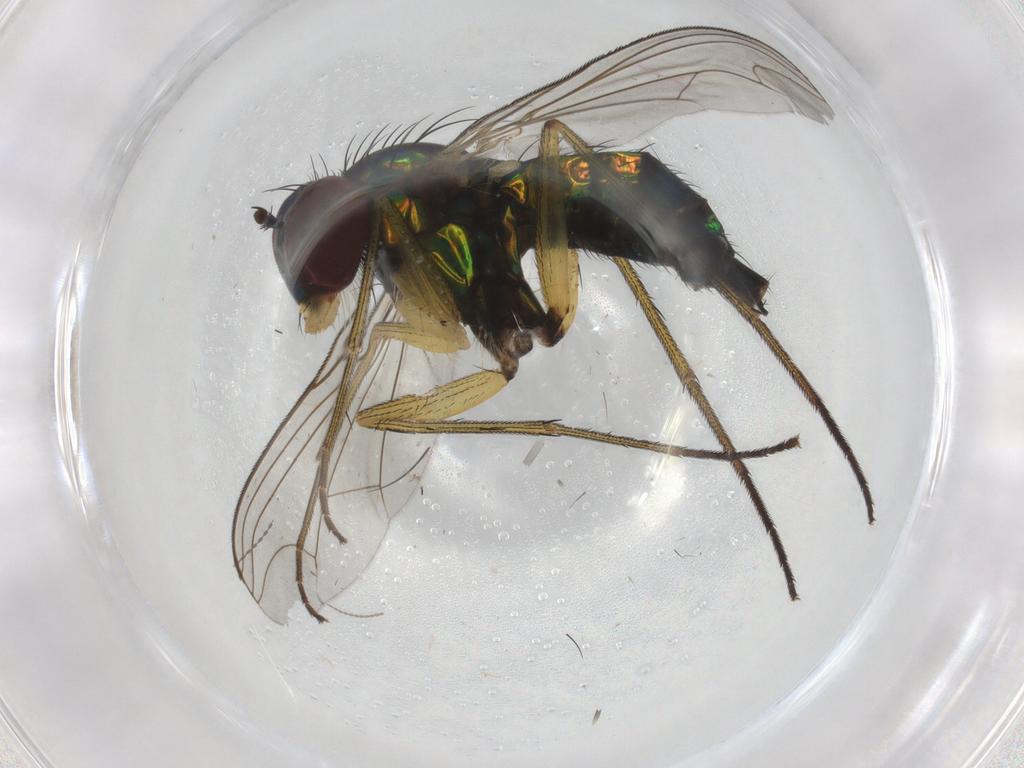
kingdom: Animalia
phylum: Arthropoda
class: Insecta
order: Diptera
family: Dolichopodidae
